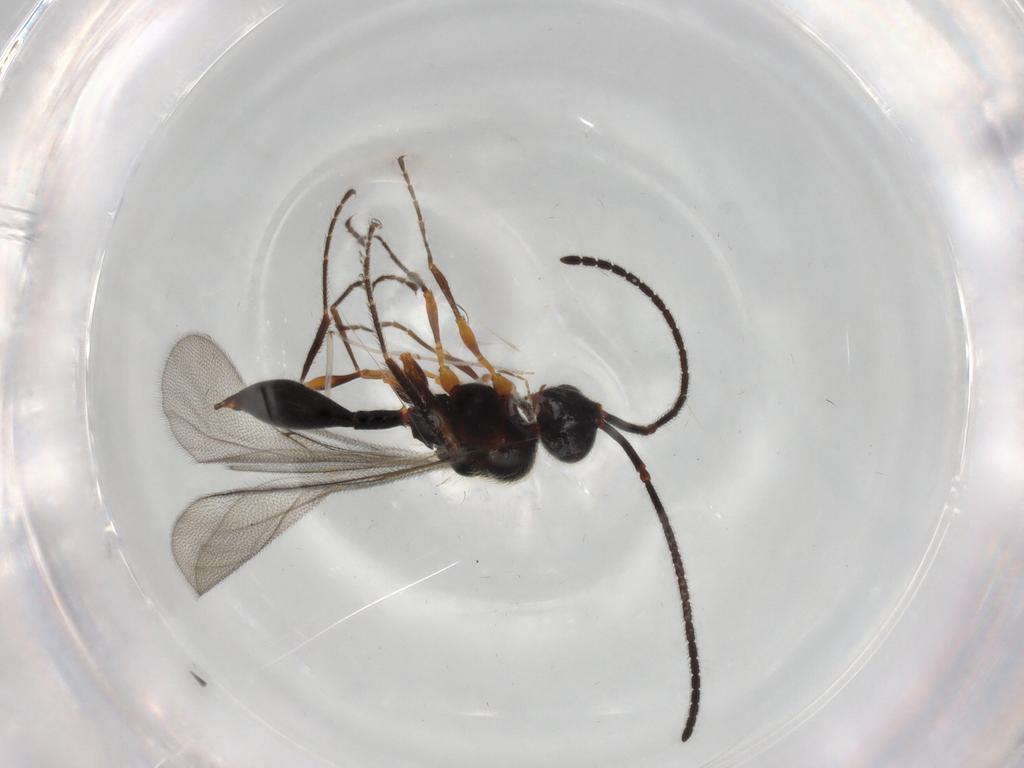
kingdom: Animalia
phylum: Arthropoda
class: Insecta
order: Hymenoptera
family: Diapriidae
